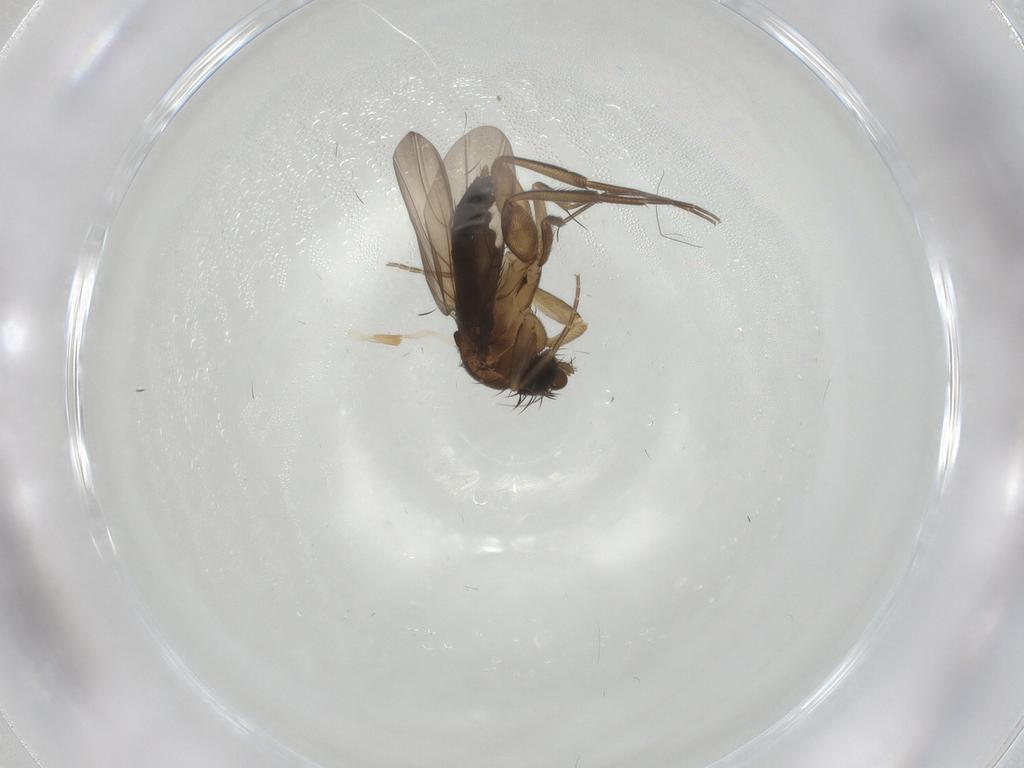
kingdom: Animalia
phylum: Arthropoda
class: Insecta
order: Diptera
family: Phoridae
